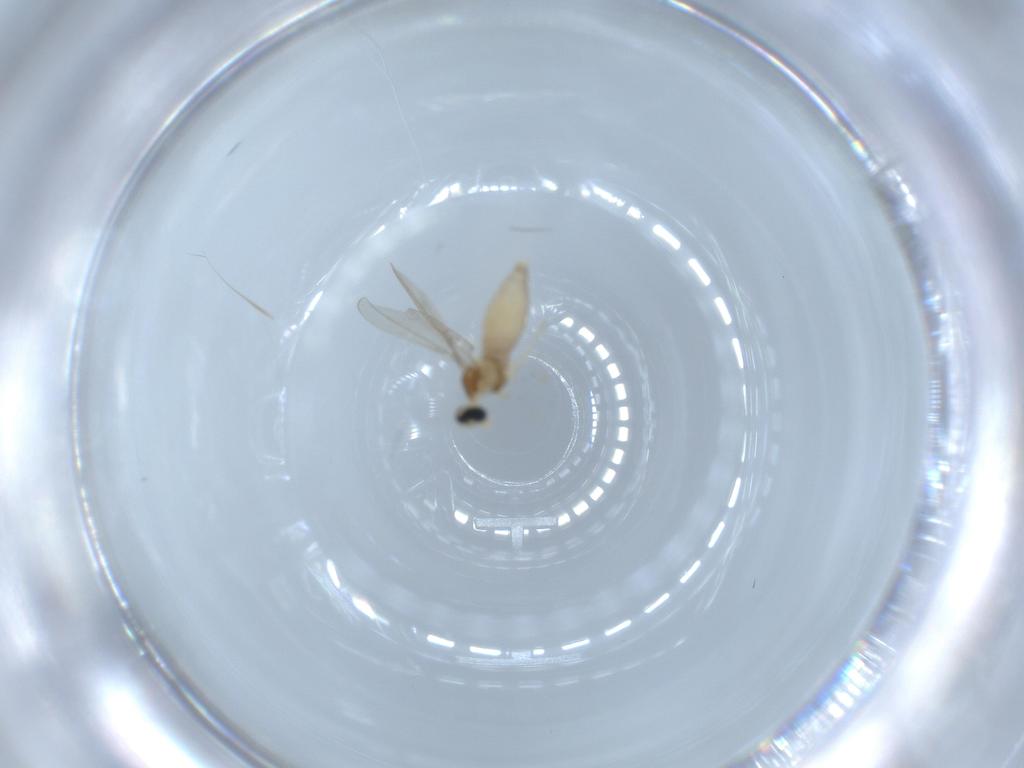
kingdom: Animalia
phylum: Arthropoda
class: Insecta
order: Diptera
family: Cecidomyiidae
